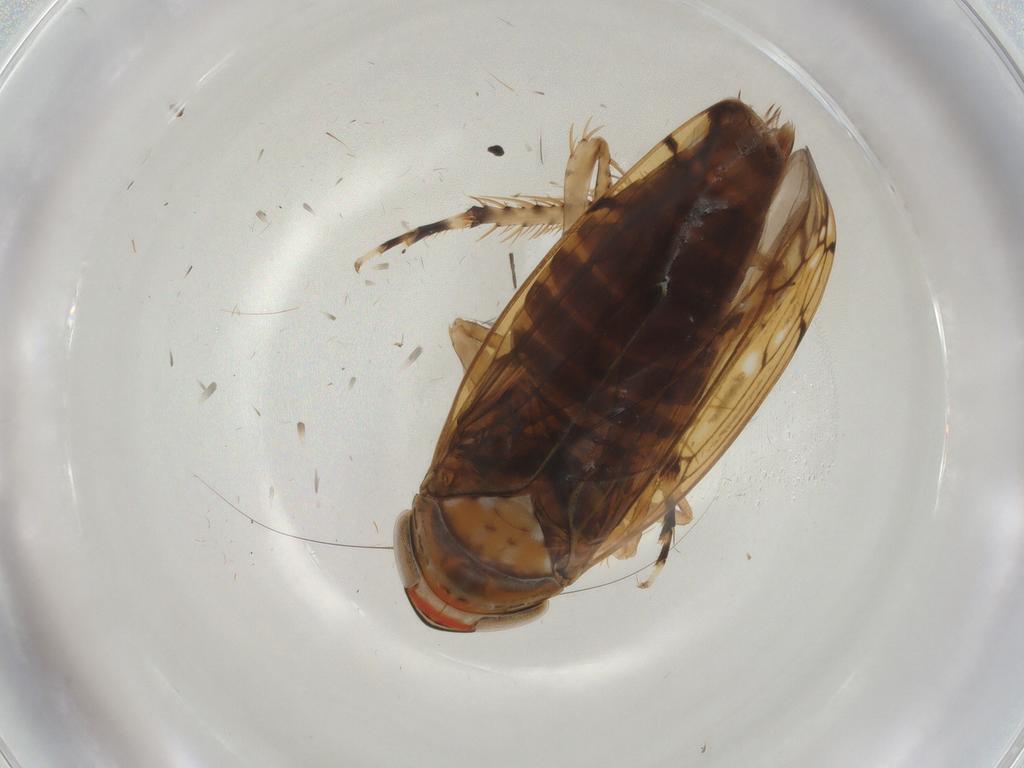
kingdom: Animalia
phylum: Arthropoda
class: Insecta
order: Hemiptera
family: Cicadellidae
